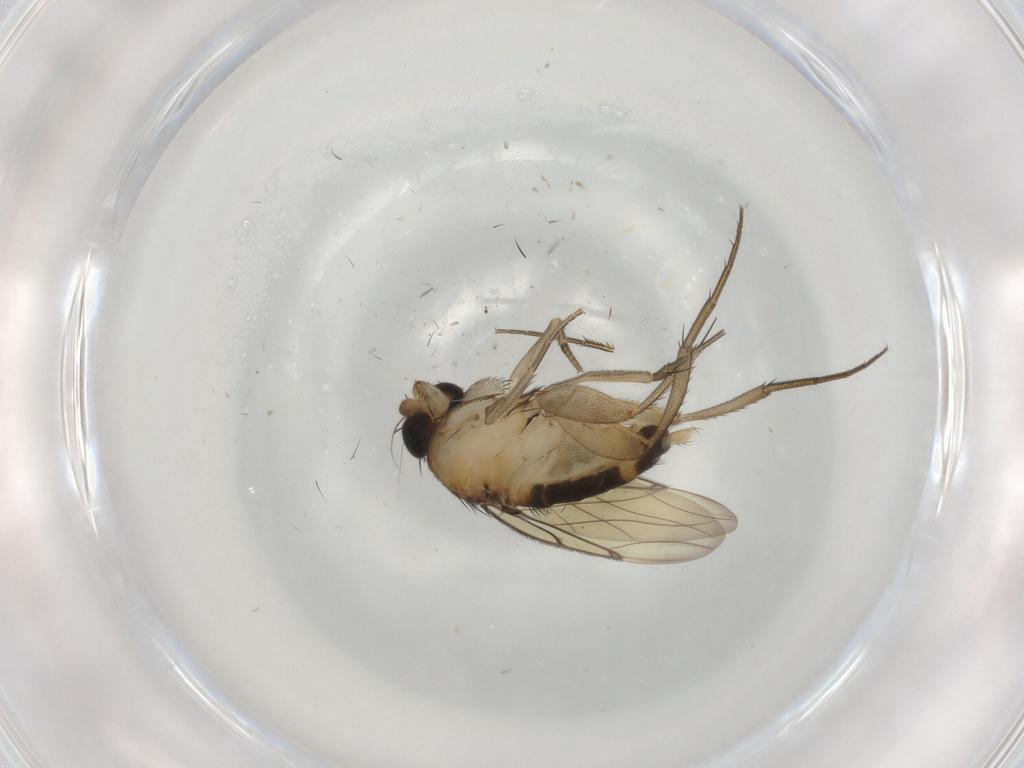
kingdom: Animalia
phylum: Arthropoda
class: Insecta
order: Diptera
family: Phoridae
